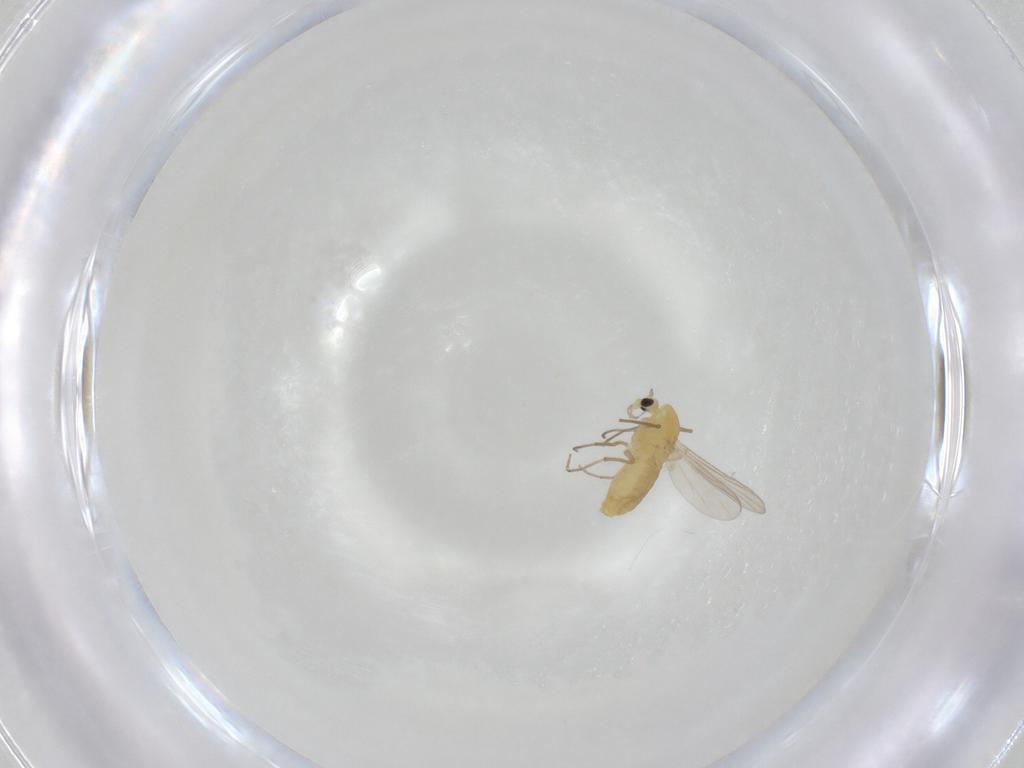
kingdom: Animalia
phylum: Arthropoda
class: Insecta
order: Diptera
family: Chironomidae
